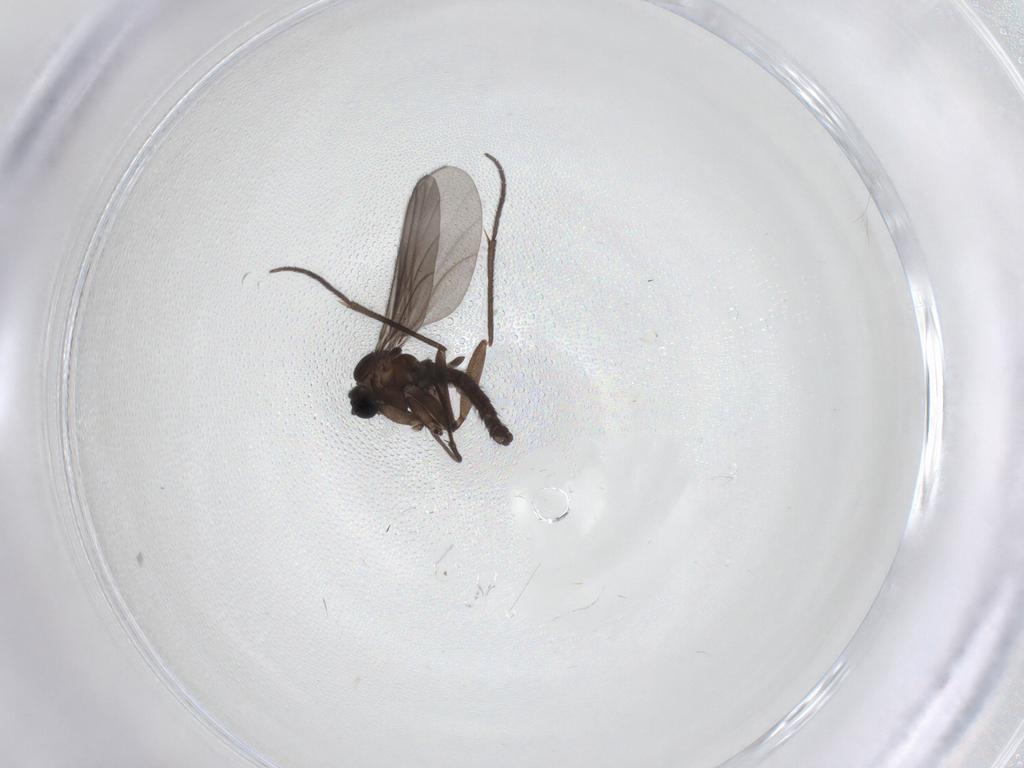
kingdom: Animalia
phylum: Arthropoda
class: Insecta
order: Diptera
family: Sciaridae
